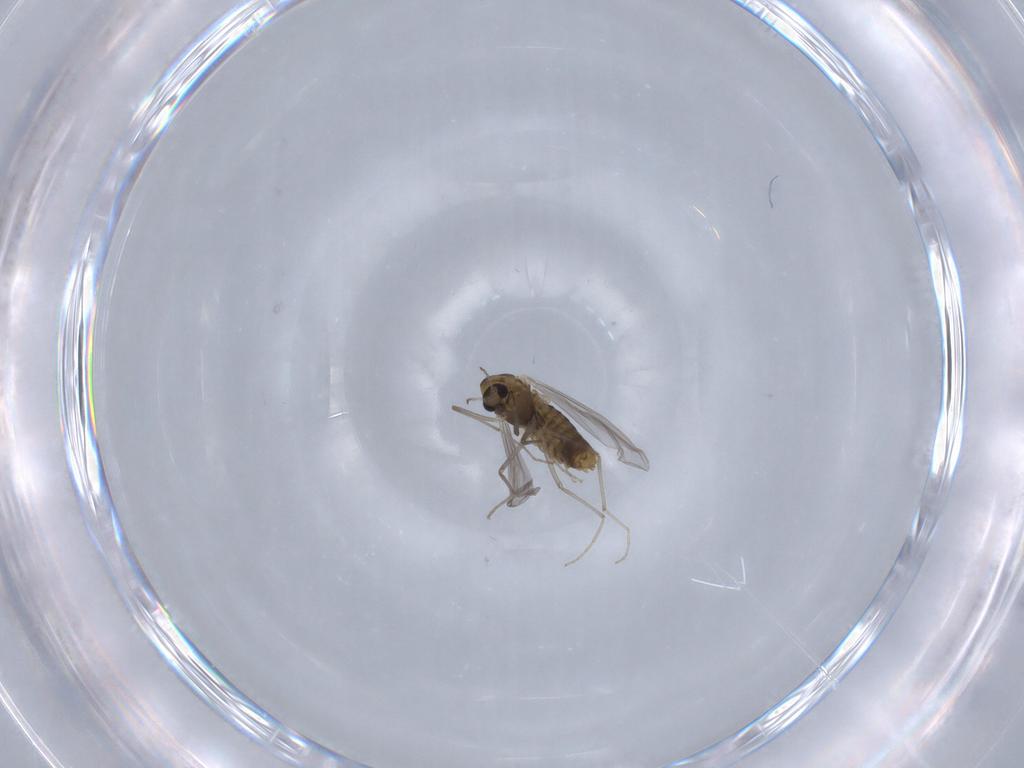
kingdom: Animalia
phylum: Arthropoda
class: Insecta
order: Diptera
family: Chironomidae
